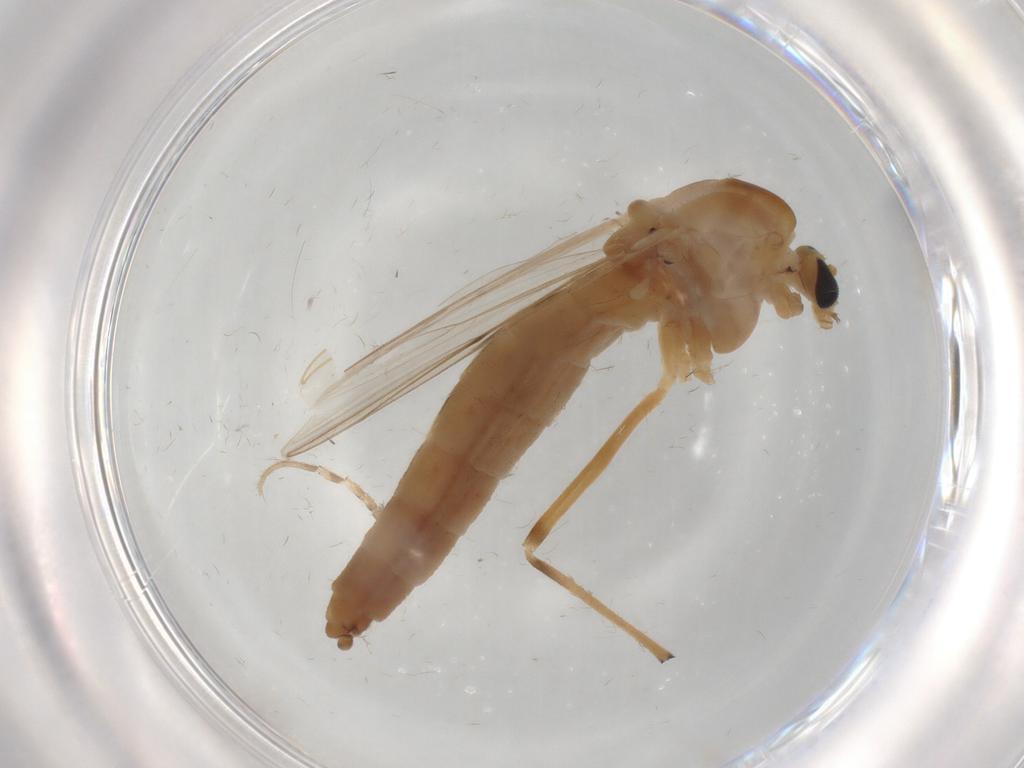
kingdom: Animalia
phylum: Arthropoda
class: Insecta
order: Diptera
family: Chironomidae
